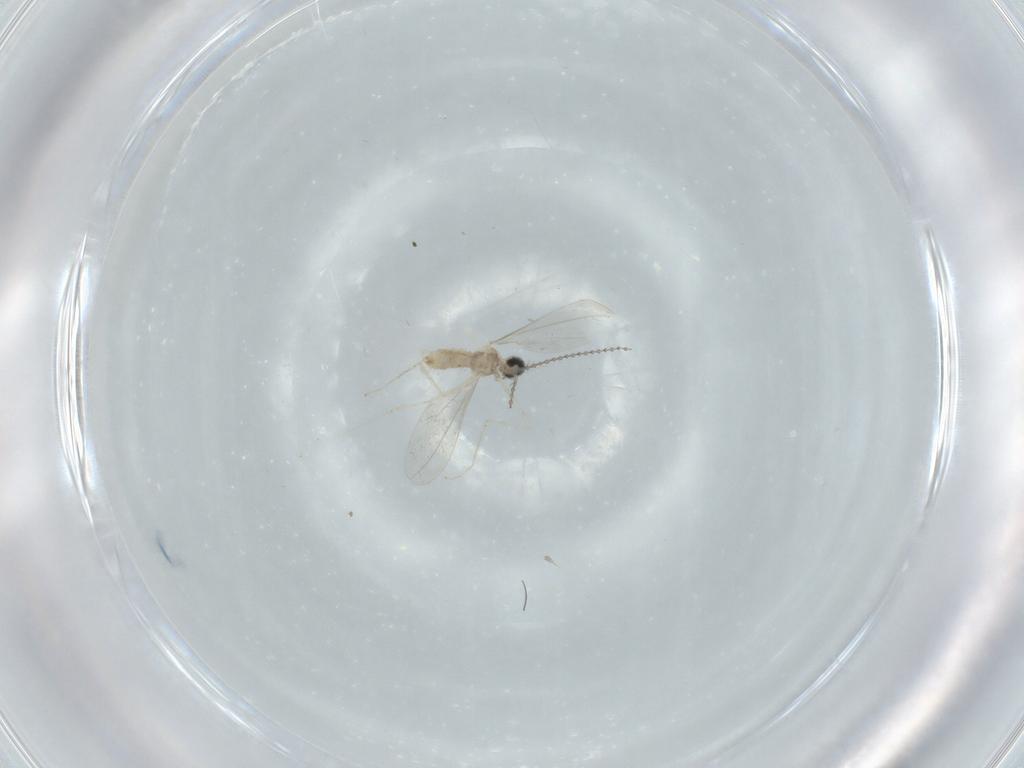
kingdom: Animalia
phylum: Arthropoda
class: Insecta
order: Diptera
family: Cecidomyiidae
